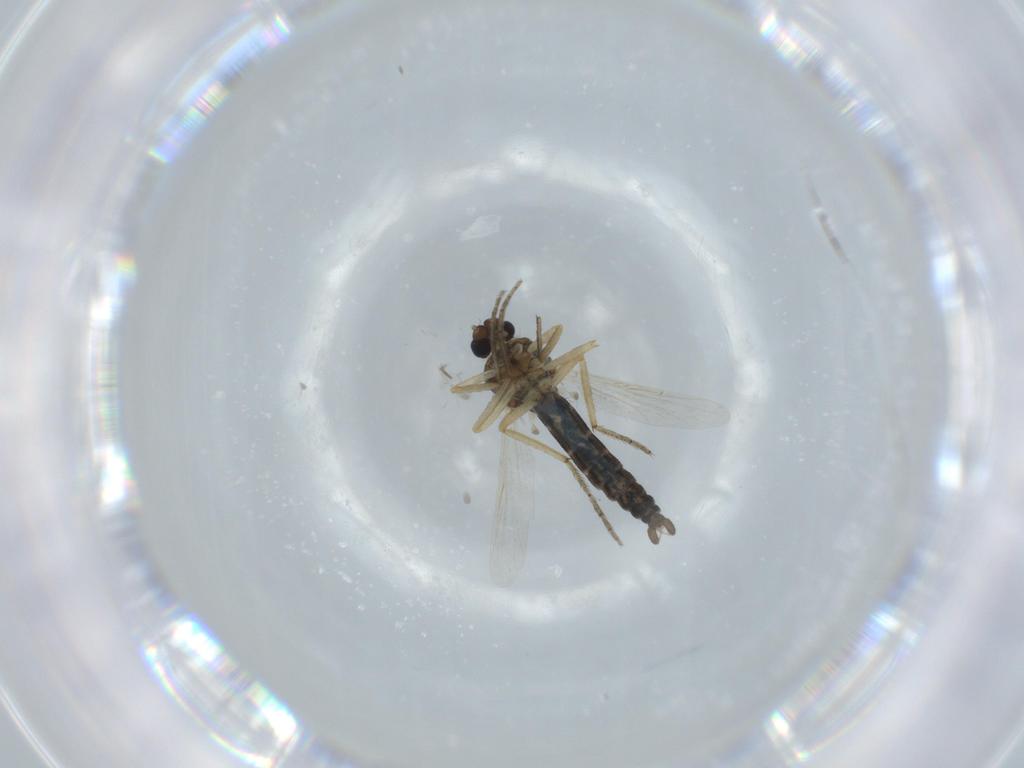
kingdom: Animalia
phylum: Arthropoda
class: Insecta
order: Diptera
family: Ceratopogonidae
